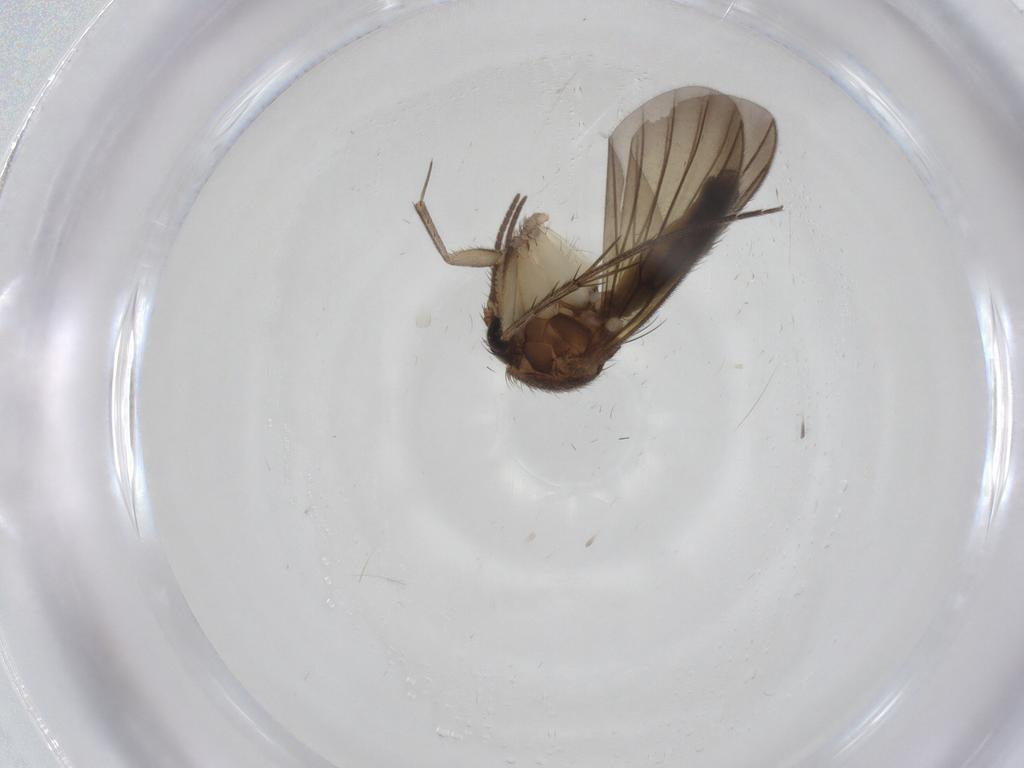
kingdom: Animalia
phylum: Arthropoda
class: Insecta
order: Diptera
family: Mycetophilidae
